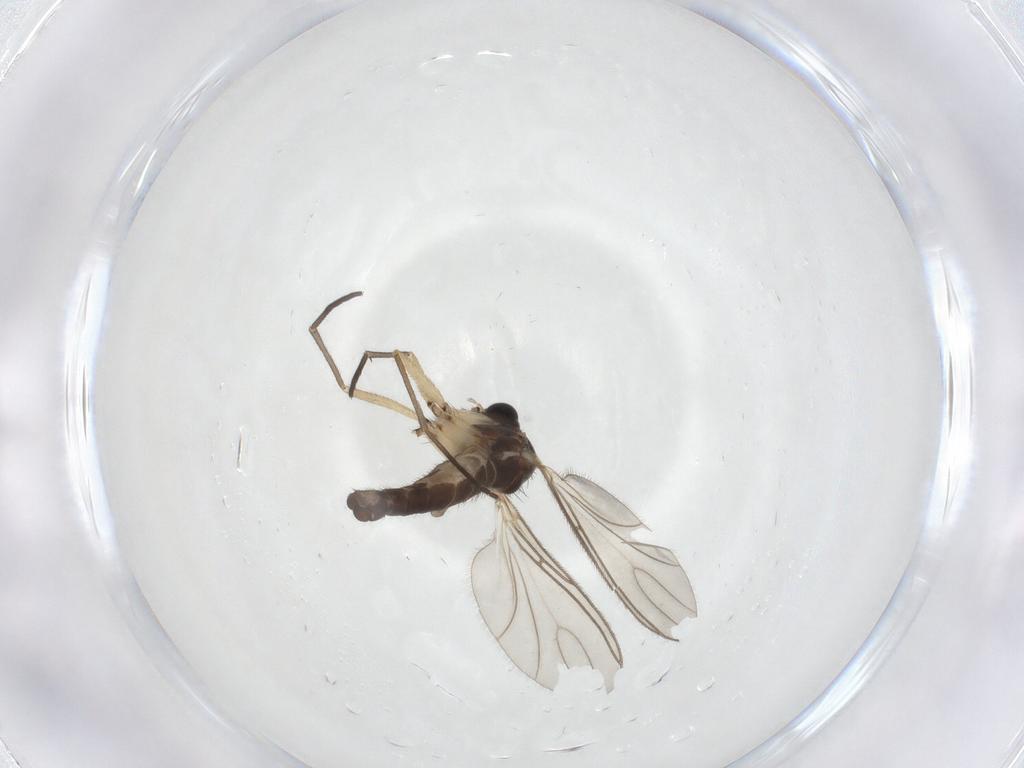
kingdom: Animalia
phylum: Arthropoda
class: Insecta
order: Diptera
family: Sciaridae
